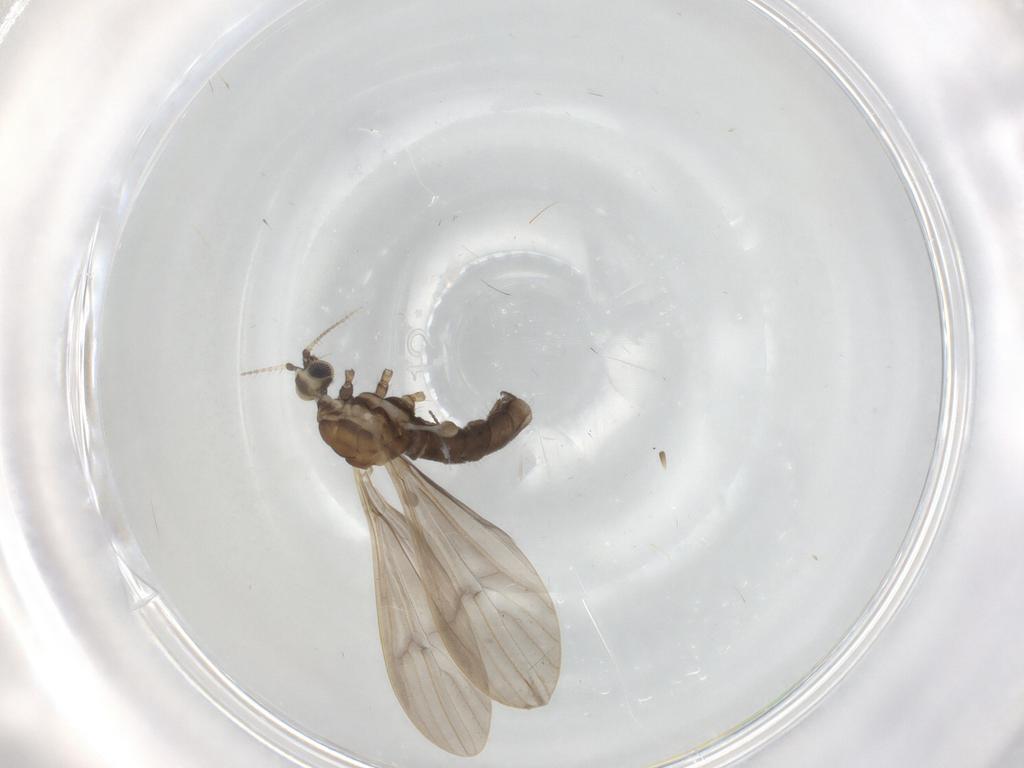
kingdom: Animalia
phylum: Arthropoda
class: Insecta
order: Diptera
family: Limoniidae
